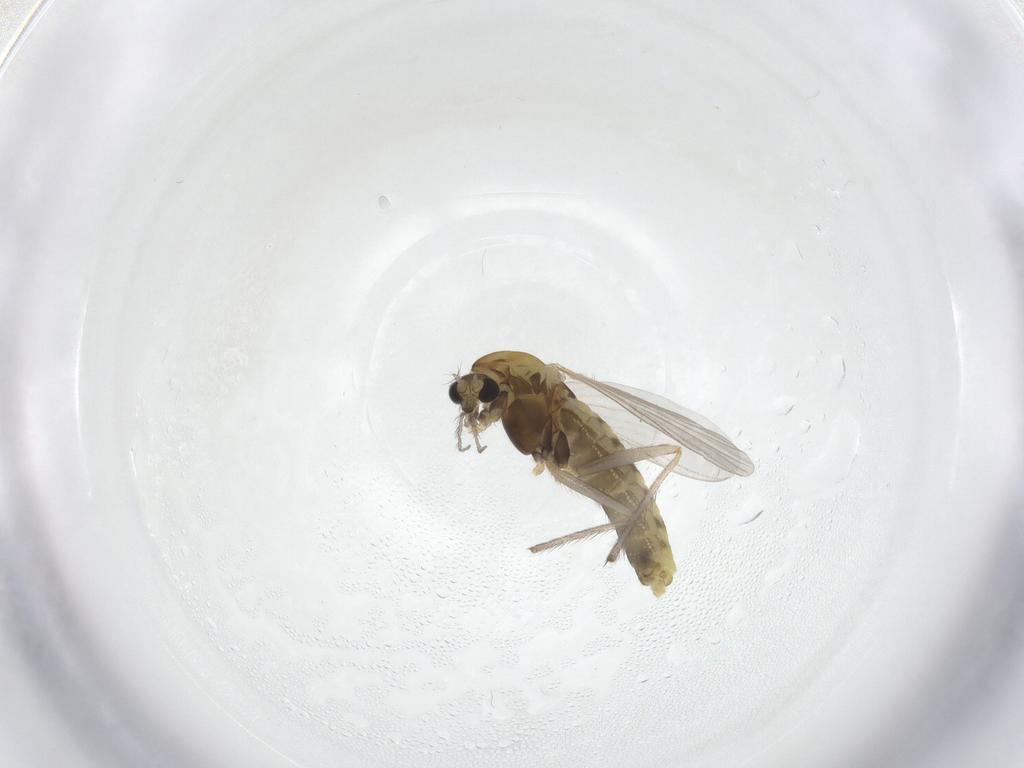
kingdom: Animalia
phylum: Arthropoda
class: Insecta
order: Diptera
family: Chironomidae
